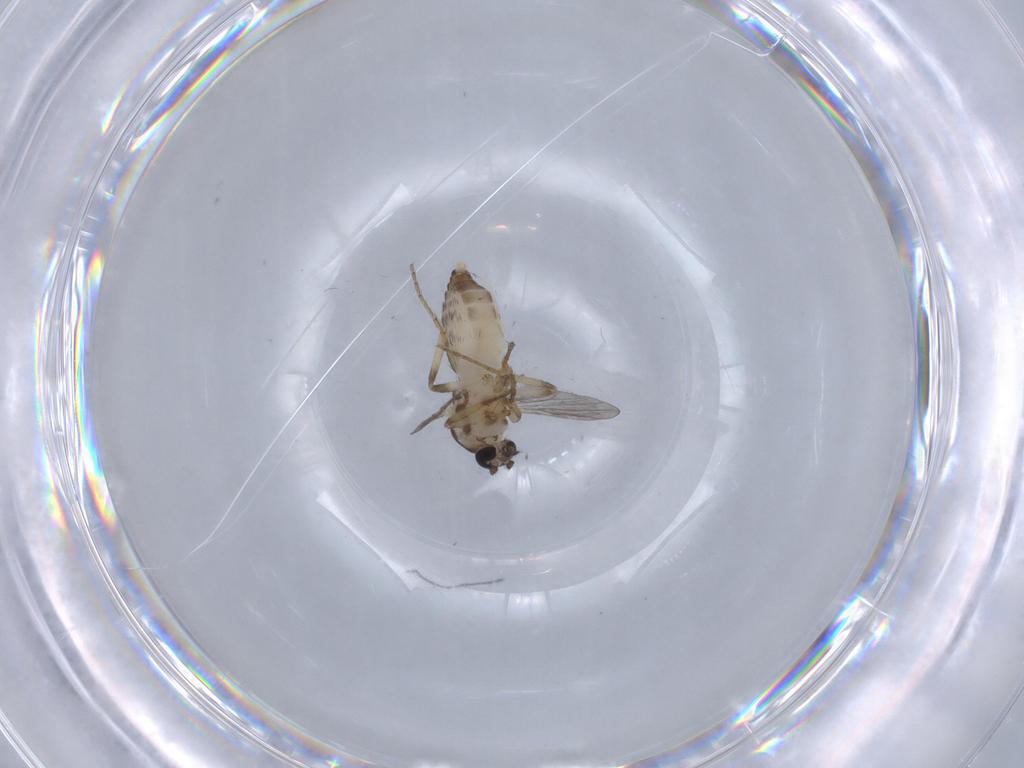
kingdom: Animalia
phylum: Arthropoda
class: Insecta
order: Diptera
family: Ceratopogonidae
